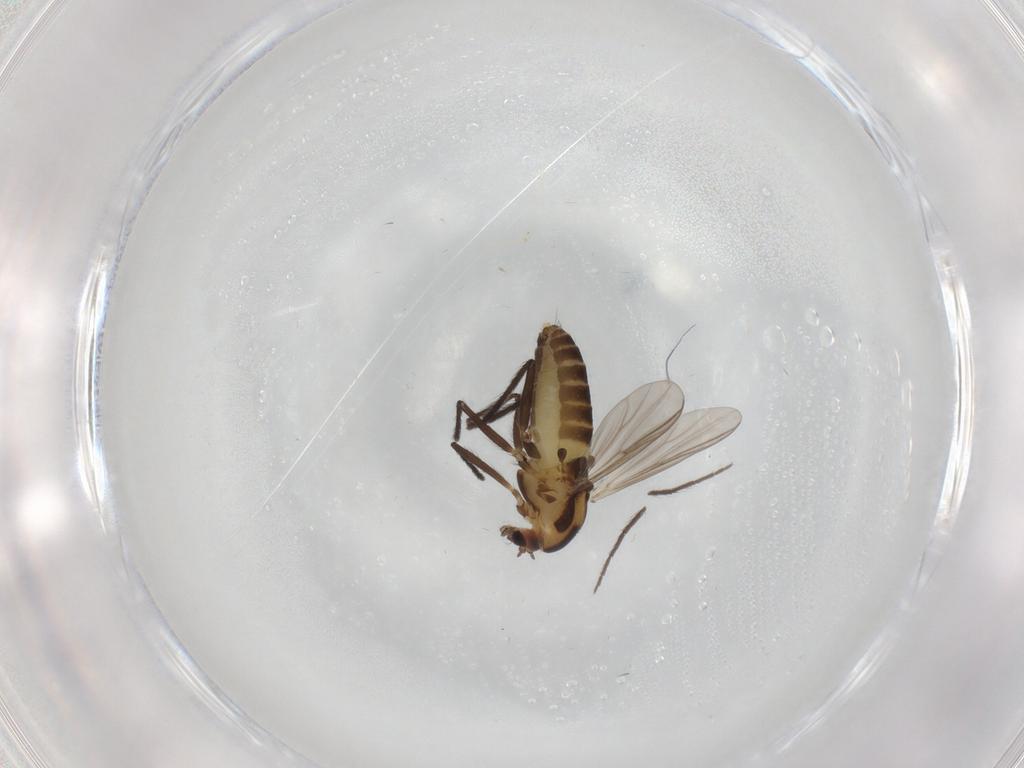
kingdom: Animalia
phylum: Arthropoda
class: Insecta
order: Diptera
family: Chironomidae
